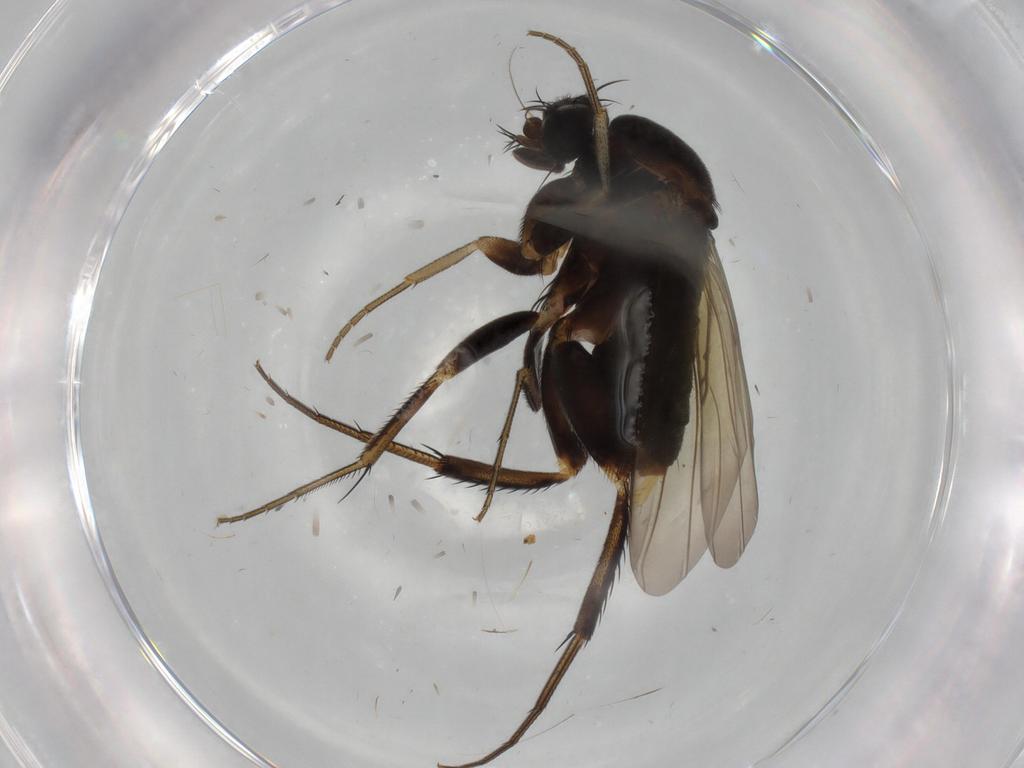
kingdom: Animalia
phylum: Arthropoda
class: Insecta
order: Diptera
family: Phoridae
